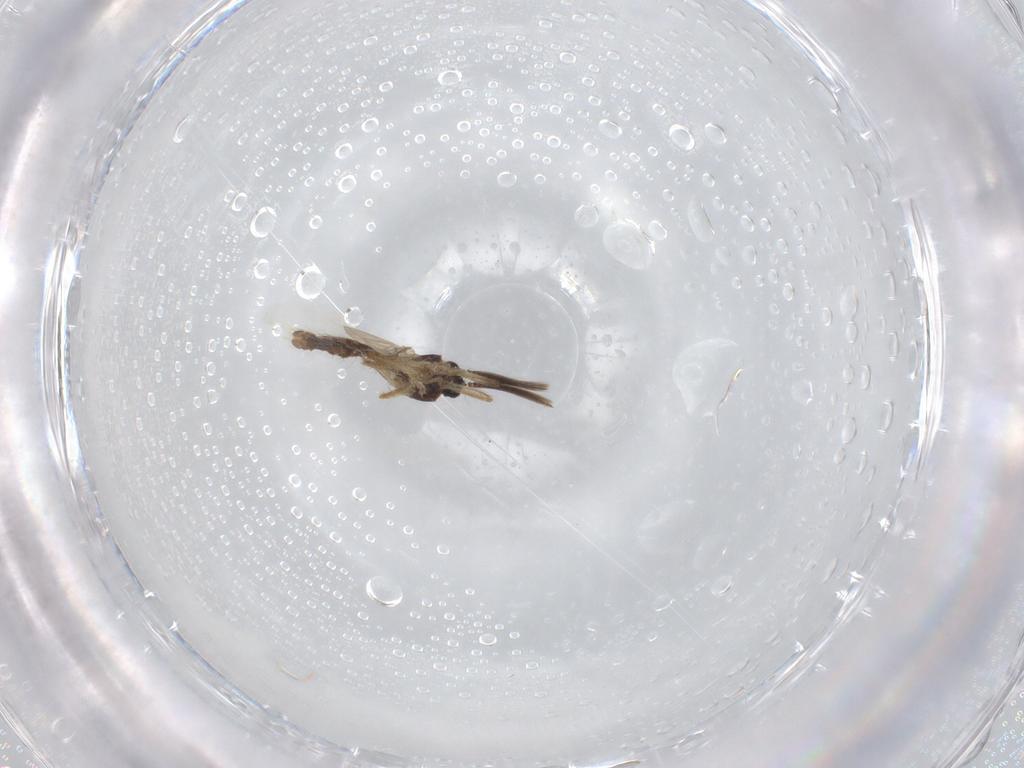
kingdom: Animalia
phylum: Arthropoda
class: Insecta
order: Diptera
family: Ceratopogonidae
